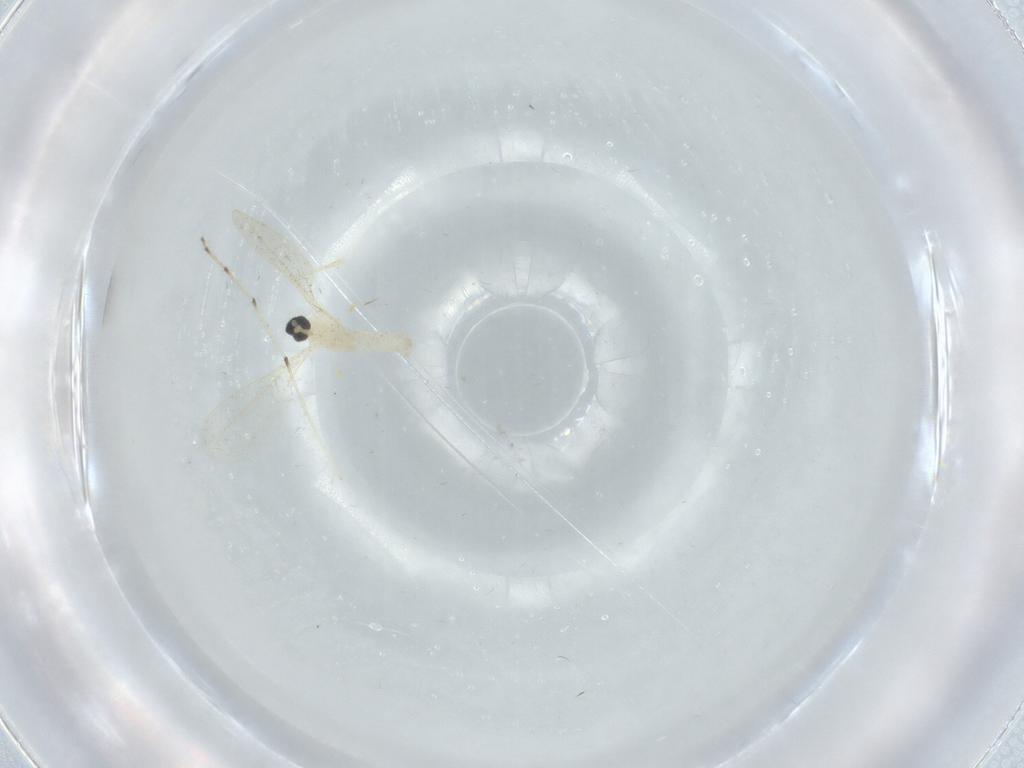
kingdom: Animalia
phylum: Arthropoda
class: Insecta
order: Diptera
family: Cecidomyiidae
